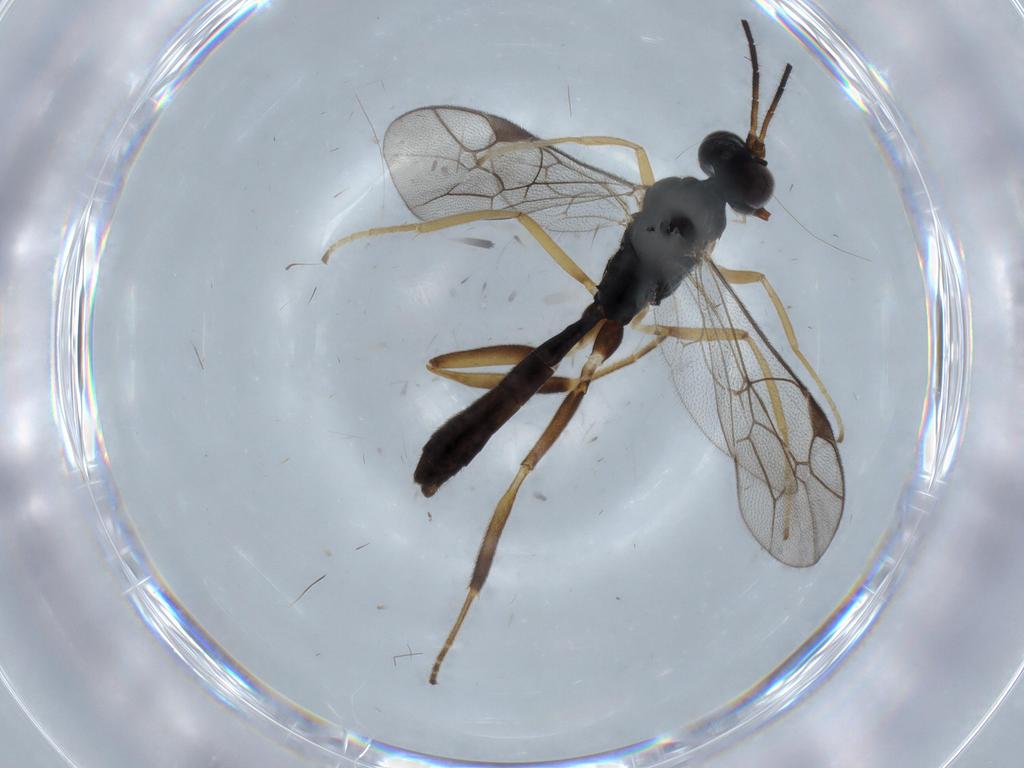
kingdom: Animalia
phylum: Arthropoda
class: Insecta
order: Hymenoptera
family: Ichneumonidae
